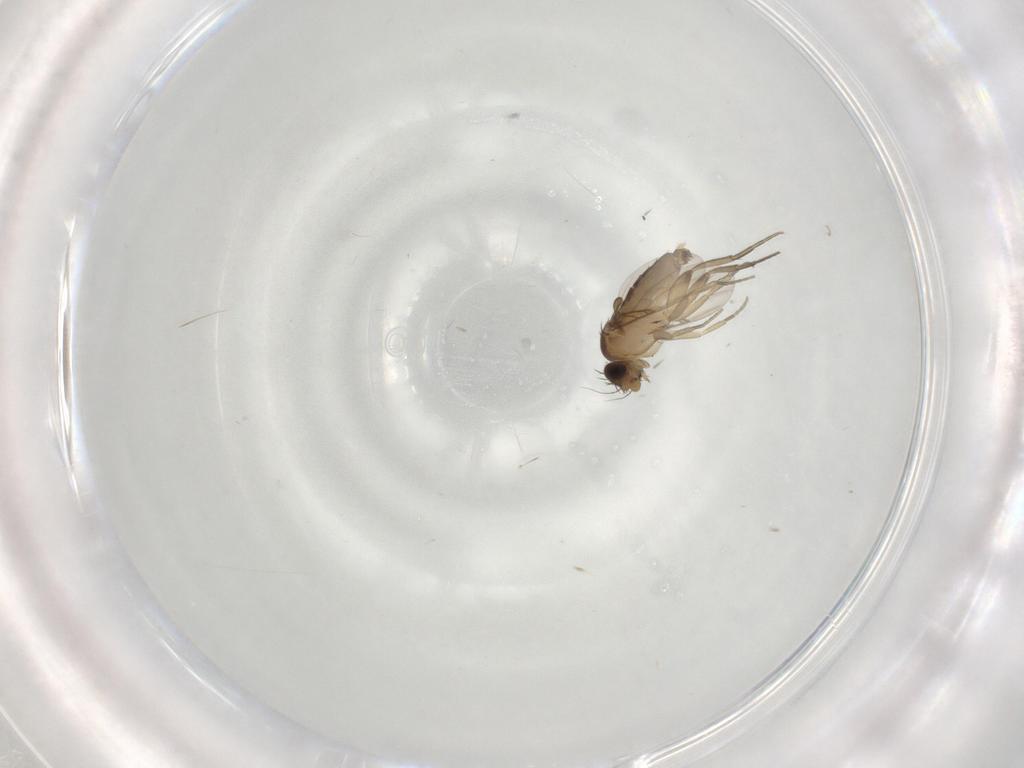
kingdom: Animalia
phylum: Arthropoda
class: Insecta
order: Diptera
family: Phoridae
